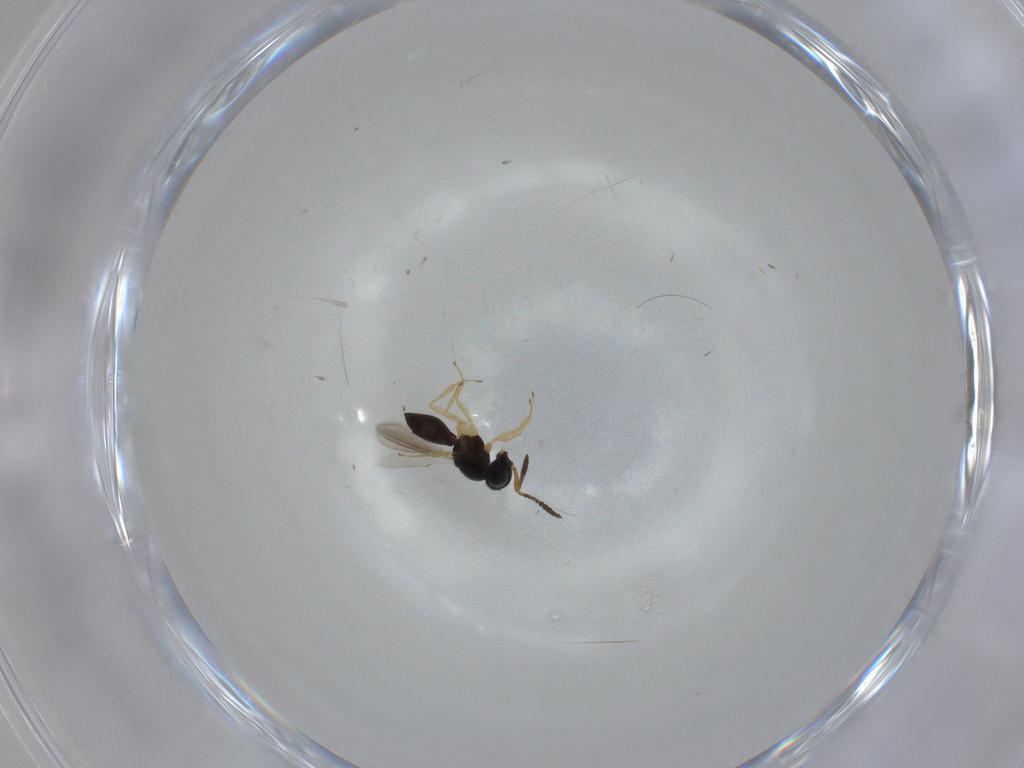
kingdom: Animalia
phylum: Arthropoda
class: Insecta
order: Hymenoptera
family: Scelionidae
